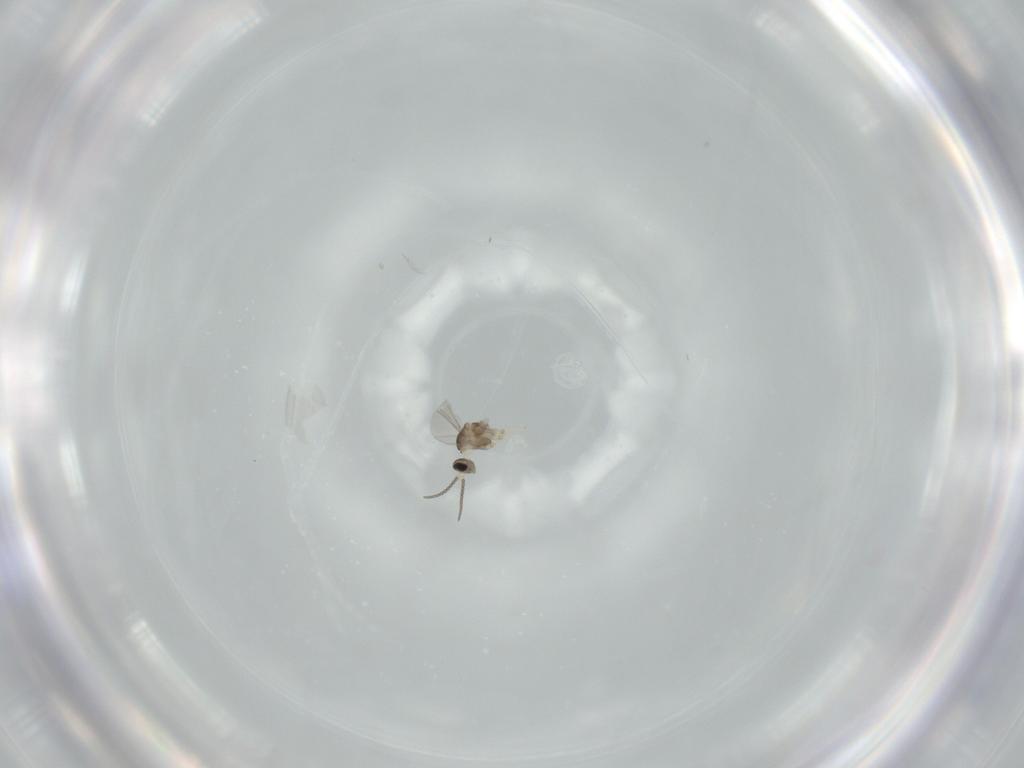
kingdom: Animalia
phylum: Arthropoda
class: Insecta
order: Diptera
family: Cecidomyiidae
